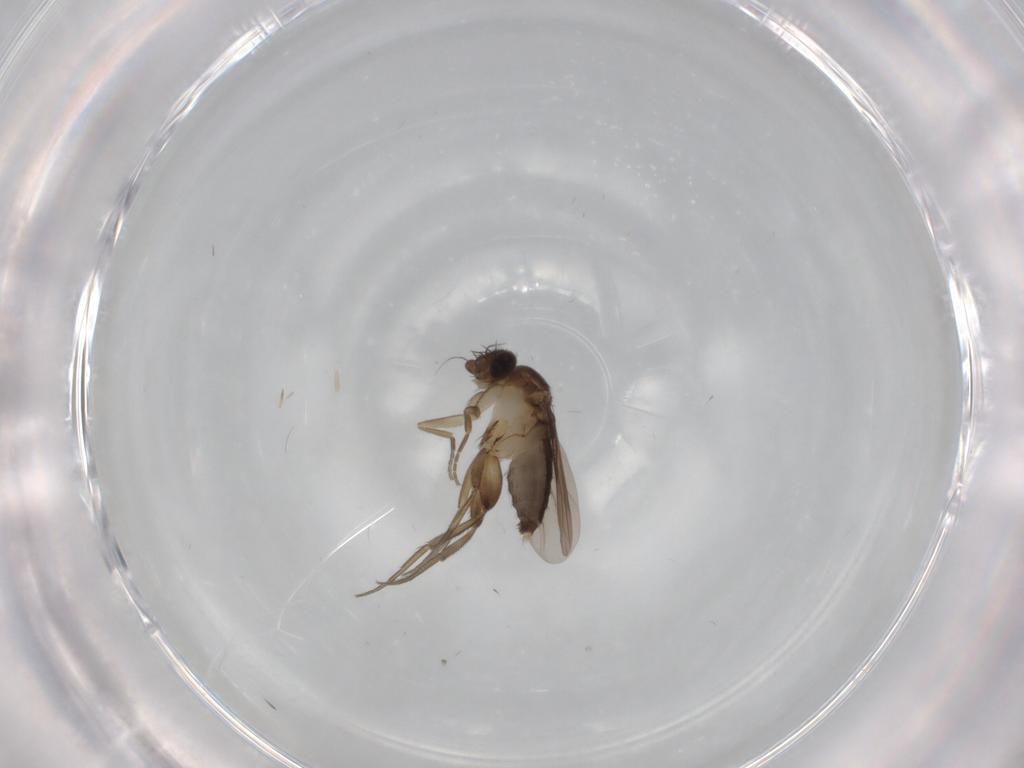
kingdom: Animalia
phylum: Arthropoda
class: Insecta
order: Diptera
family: Phoridae
